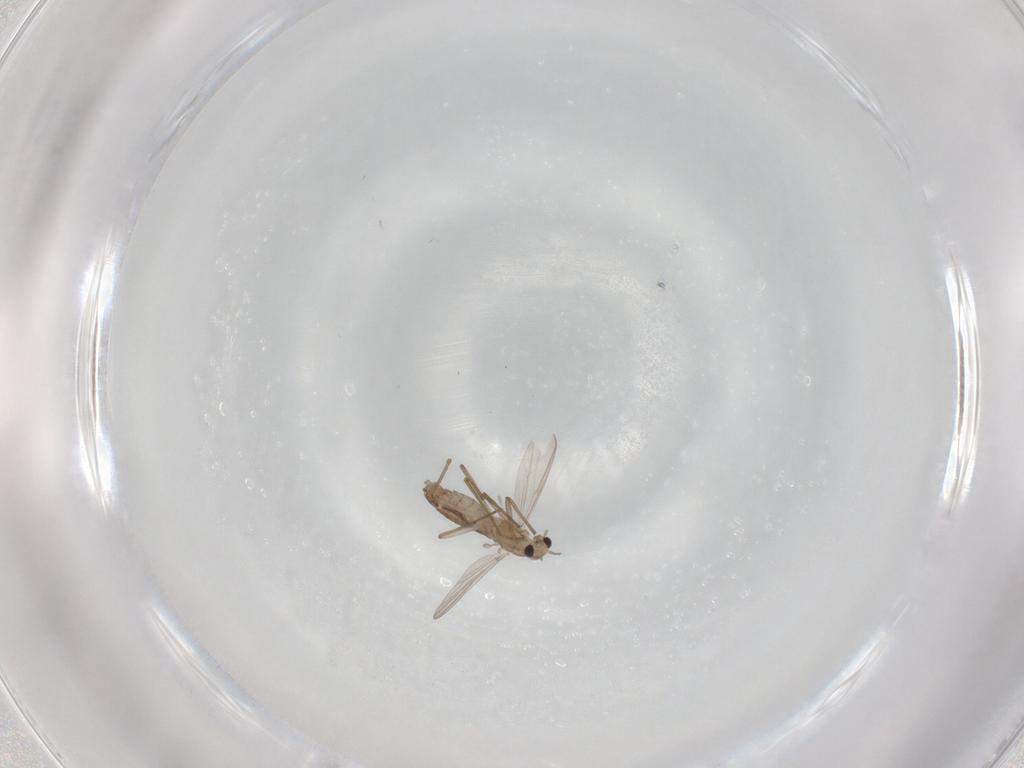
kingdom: Animalia
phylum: Arthropoda
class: Insecta
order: Diptera
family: Chironomidae
